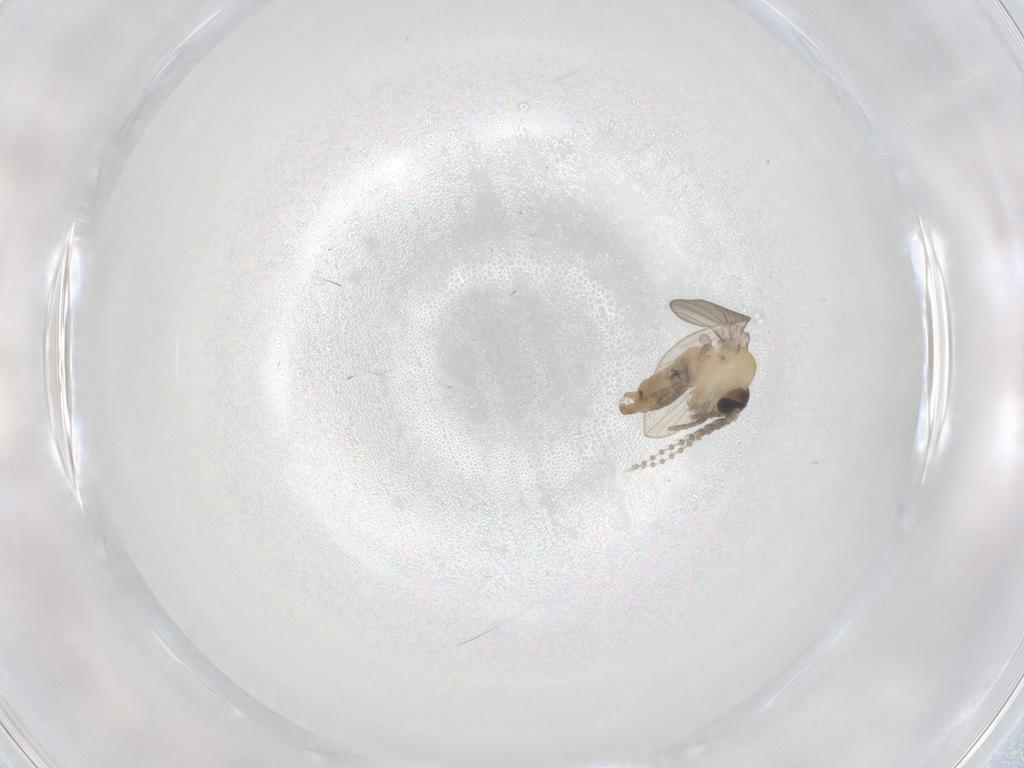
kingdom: Animalia
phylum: Arthropoda
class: Insecta
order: Diptera
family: Psychodidae
